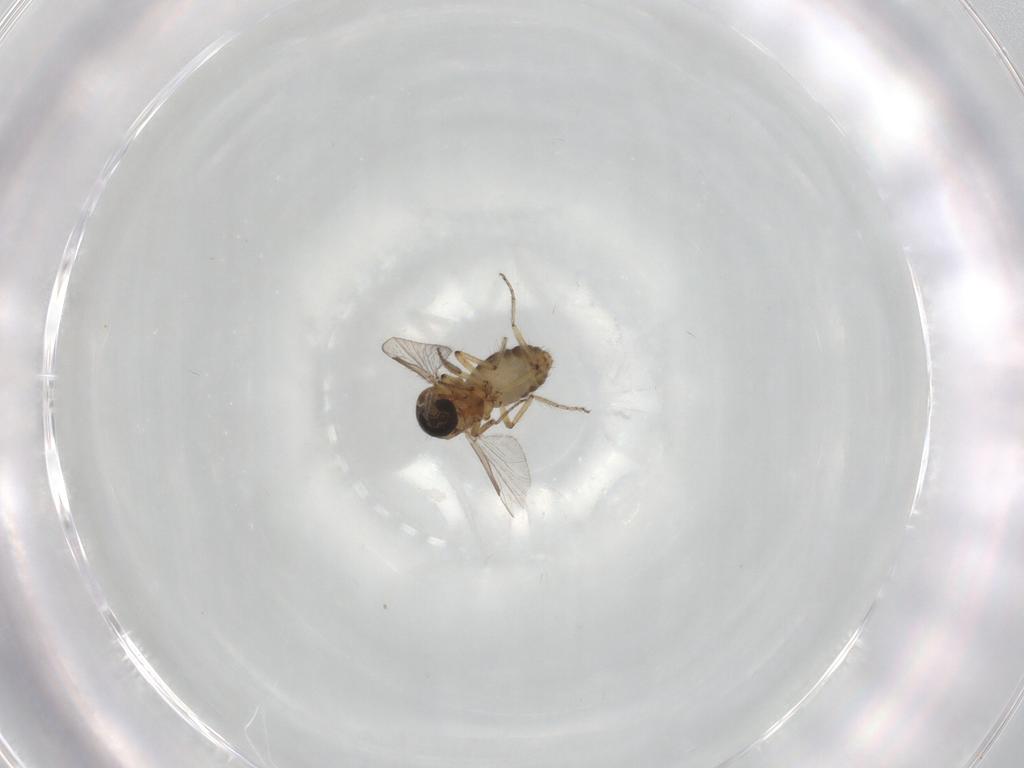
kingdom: Animalia
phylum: Arthropoda
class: Insecta
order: Diptera
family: Ceratopogonidae
